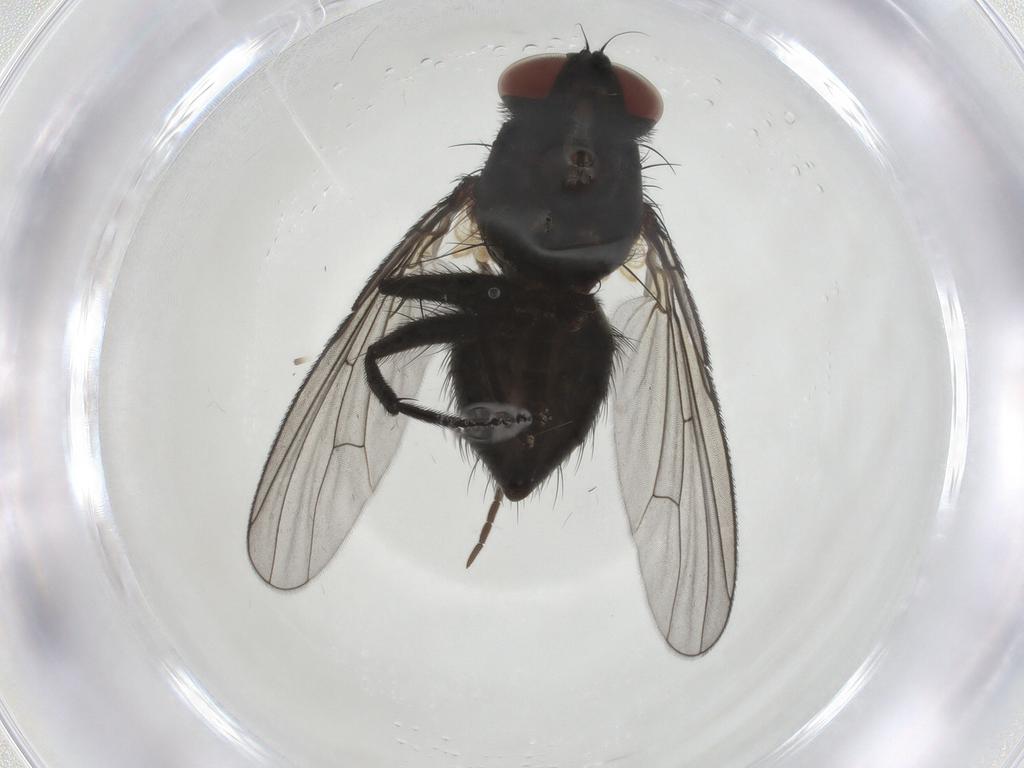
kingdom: Animalia
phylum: Arthropoda
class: Insecta
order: Diptera
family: Muscidae
